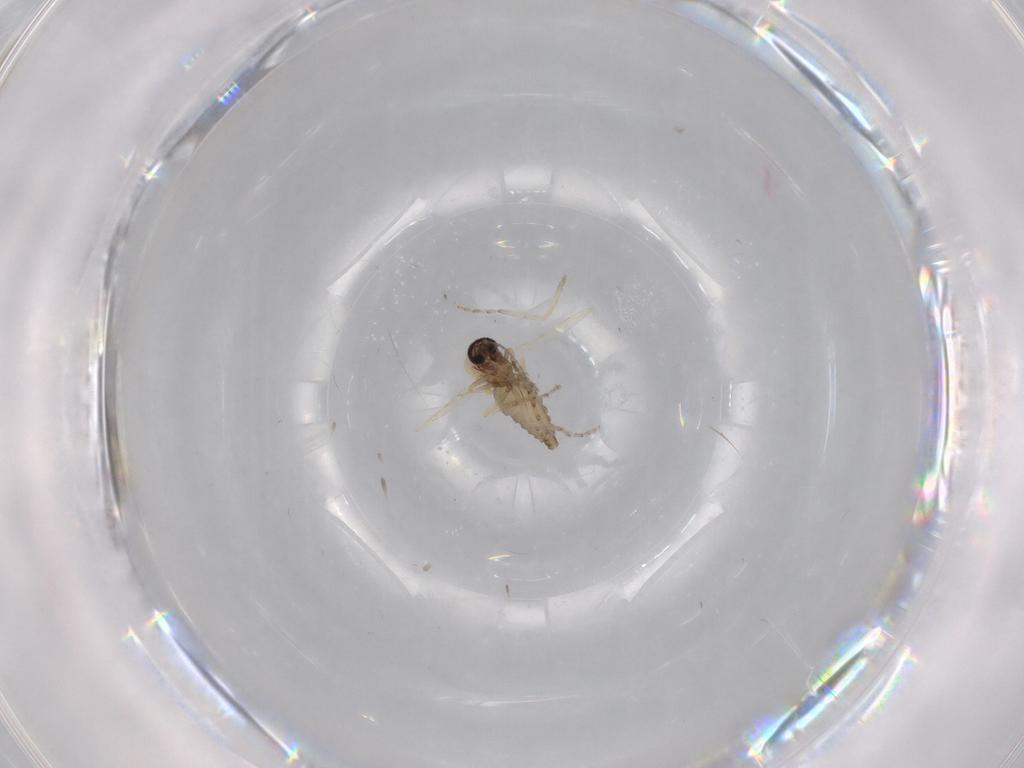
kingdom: Animalia
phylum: Arthropoda
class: Insecta
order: Diptera
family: Ceratopogonidae
